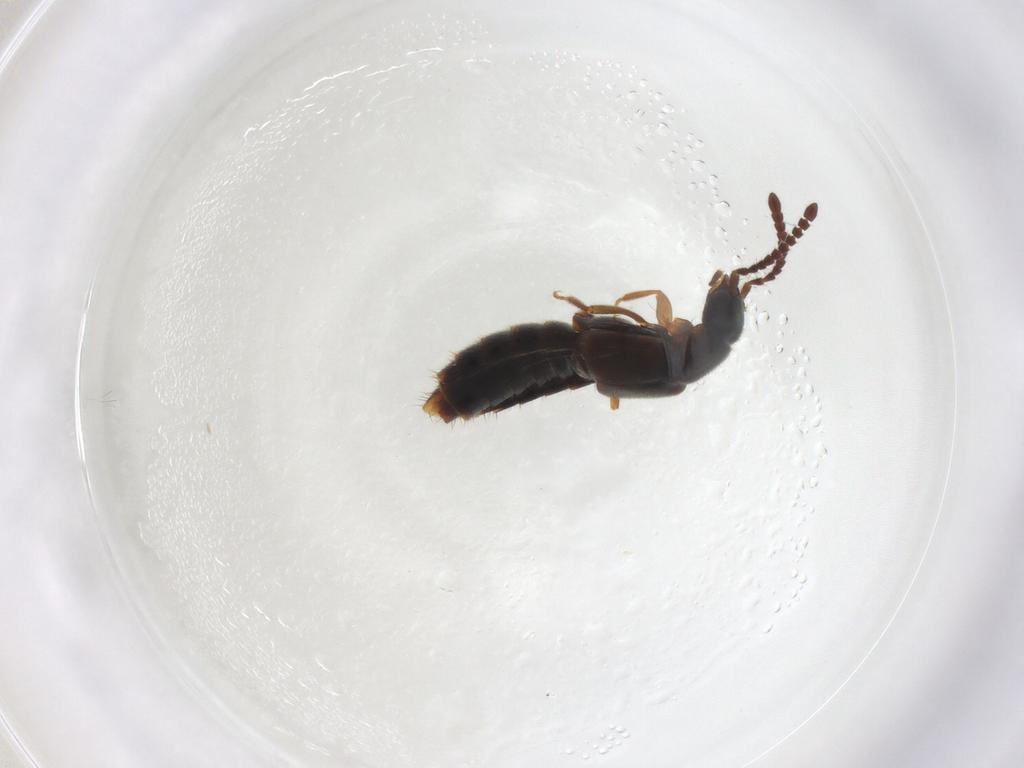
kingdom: Animalia
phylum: Arthropoda
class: Insecta
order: Coleoptera
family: Staphylinidae
